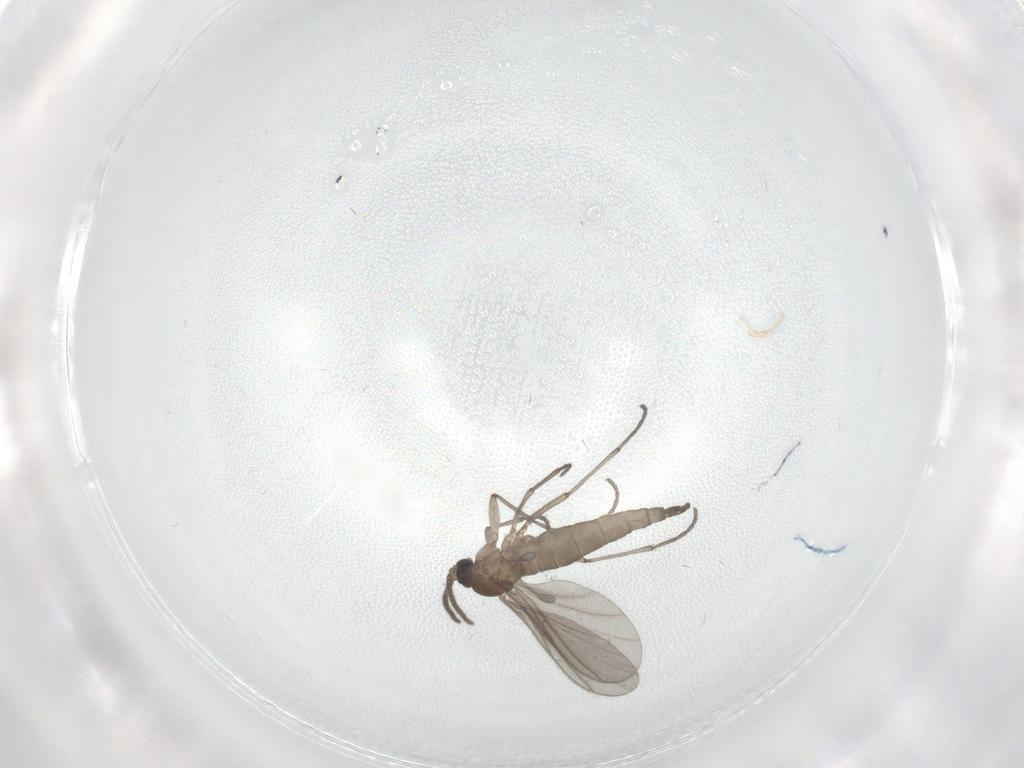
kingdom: Animalia
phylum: Arthropoda
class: Insecta
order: Diptera
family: Sciaridae
